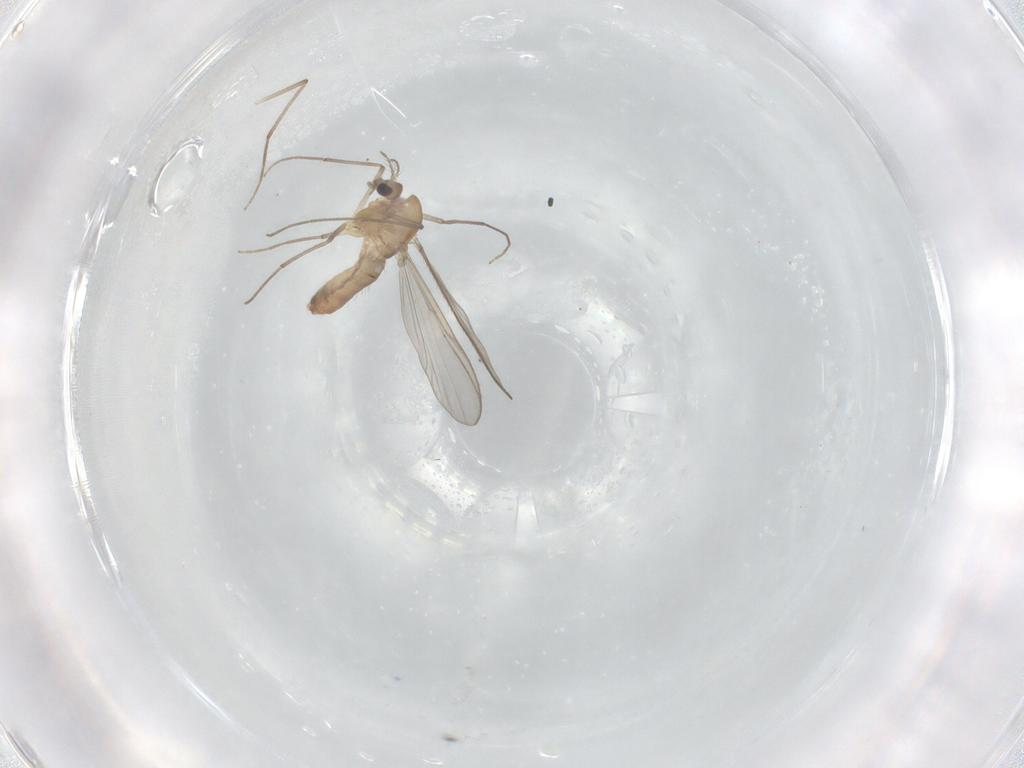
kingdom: Animalia
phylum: Arthropoda
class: Insecta
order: Diptera
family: Chironomidae
